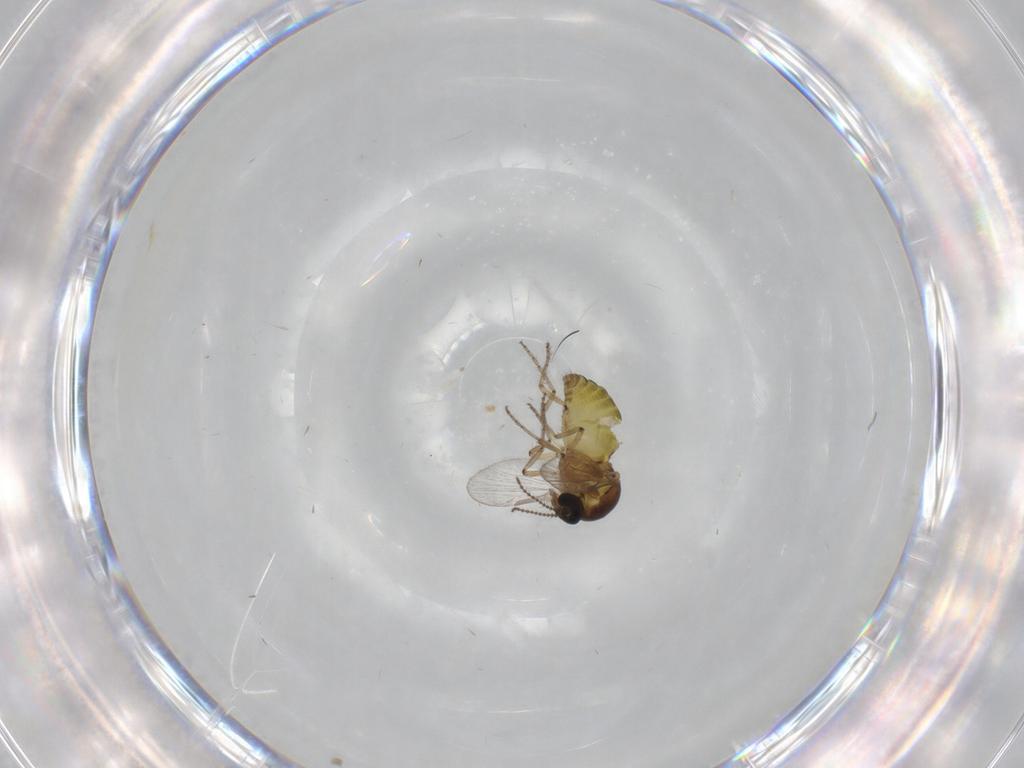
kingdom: Animalia
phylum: Arthropoda
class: Insecta
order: Diptera
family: Ceratopogonidae
